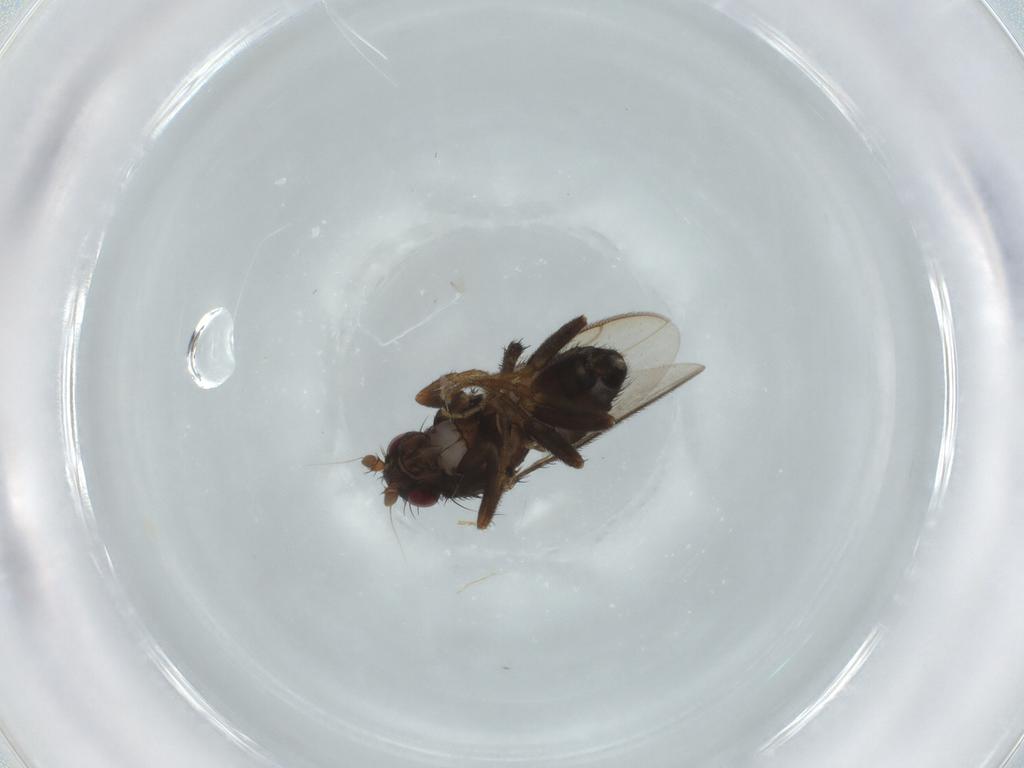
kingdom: Animalia
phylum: Arthropoda
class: Insecta
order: Diptera
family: Sphaeroceridae
